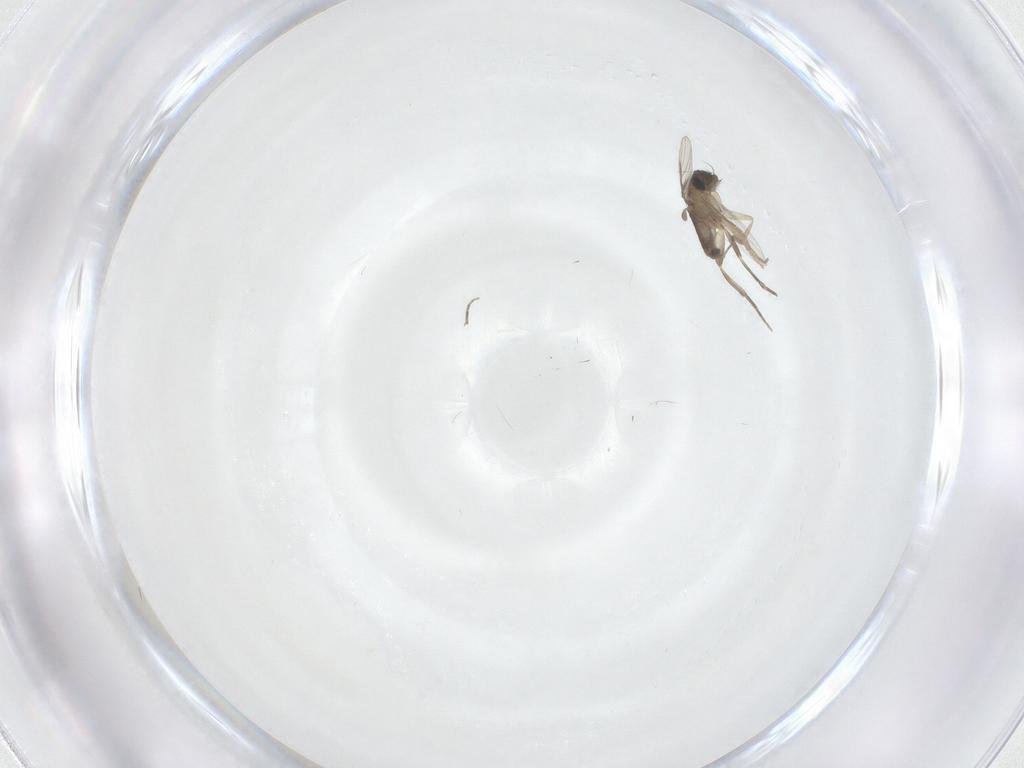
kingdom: Animalia
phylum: Arthropoda
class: Insecta
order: Diptera
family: Phoridae
